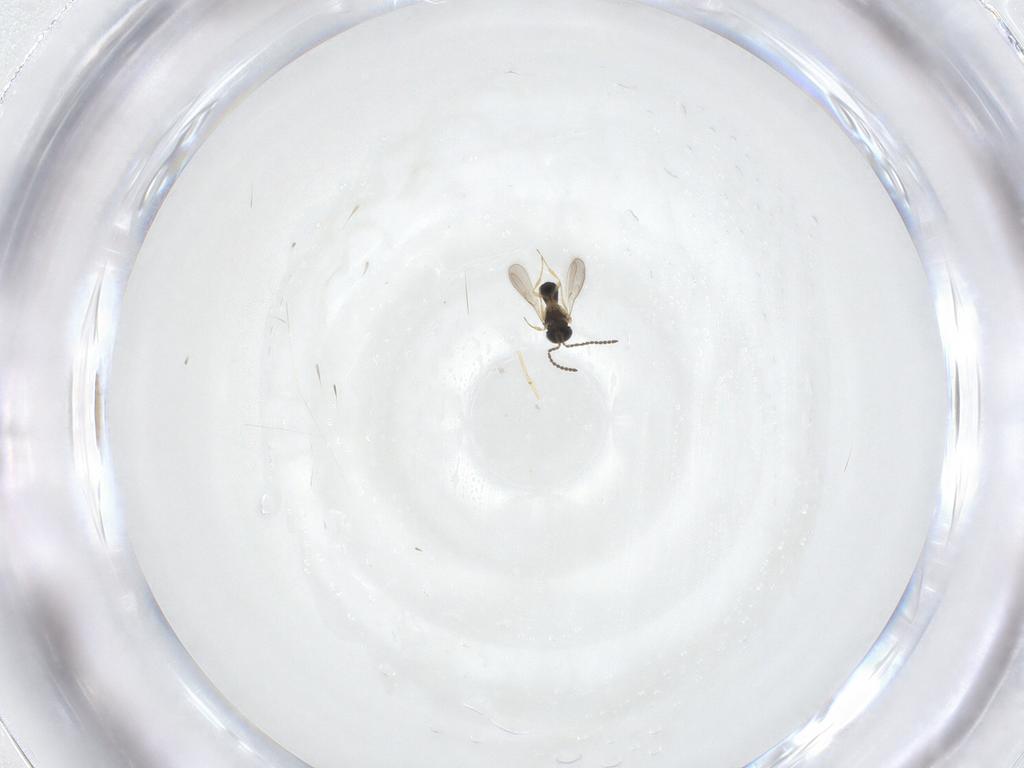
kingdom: Animalia
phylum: Arthropoda
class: Insecta
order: Hymenoptera
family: Scelionidae
